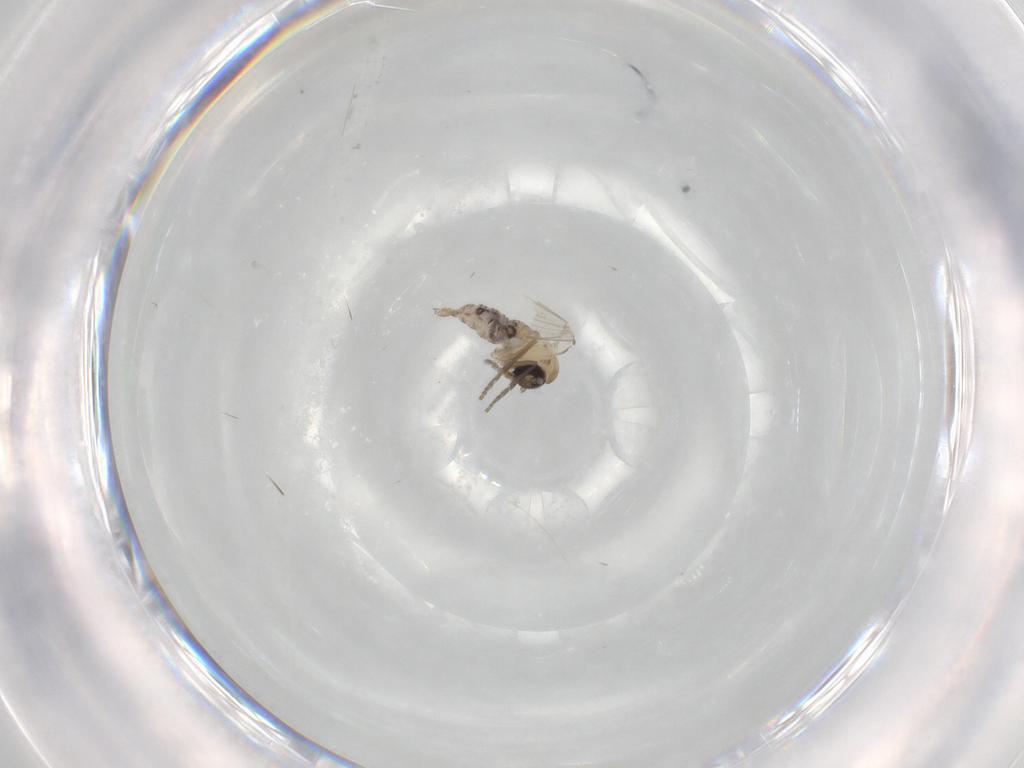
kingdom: Animalia
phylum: Arthropoda
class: Insecta
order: Diptera
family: Psychodidae
